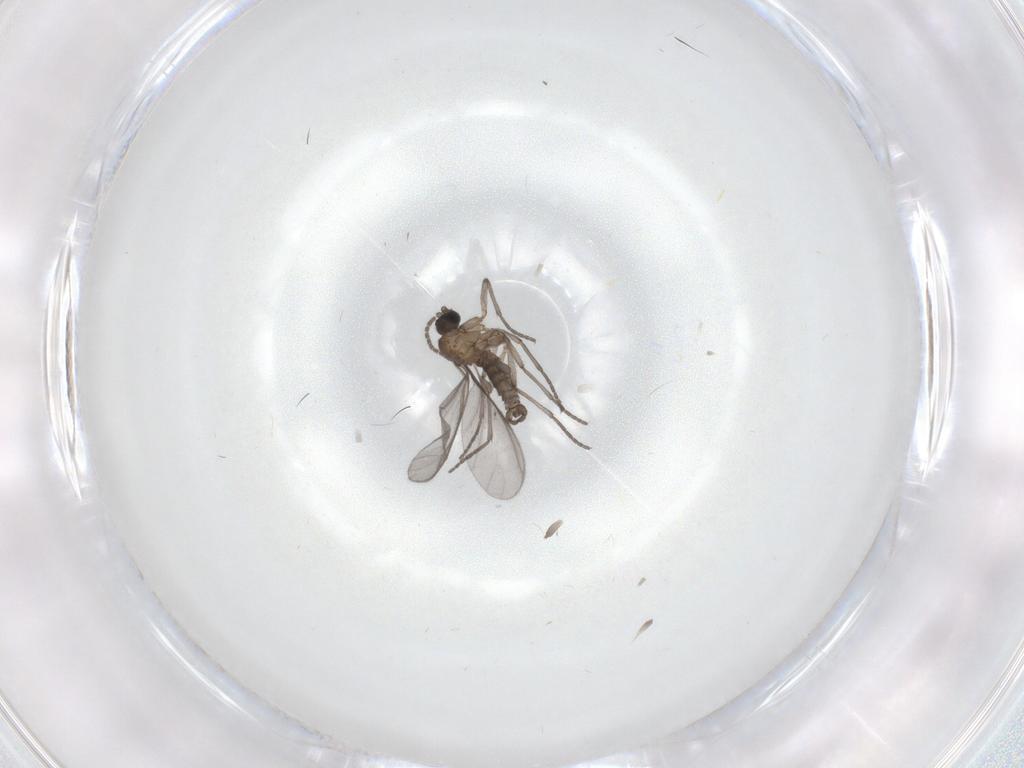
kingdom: Animalia
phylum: Arthropoda
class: Insecta
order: Diptera
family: Sciaridae
